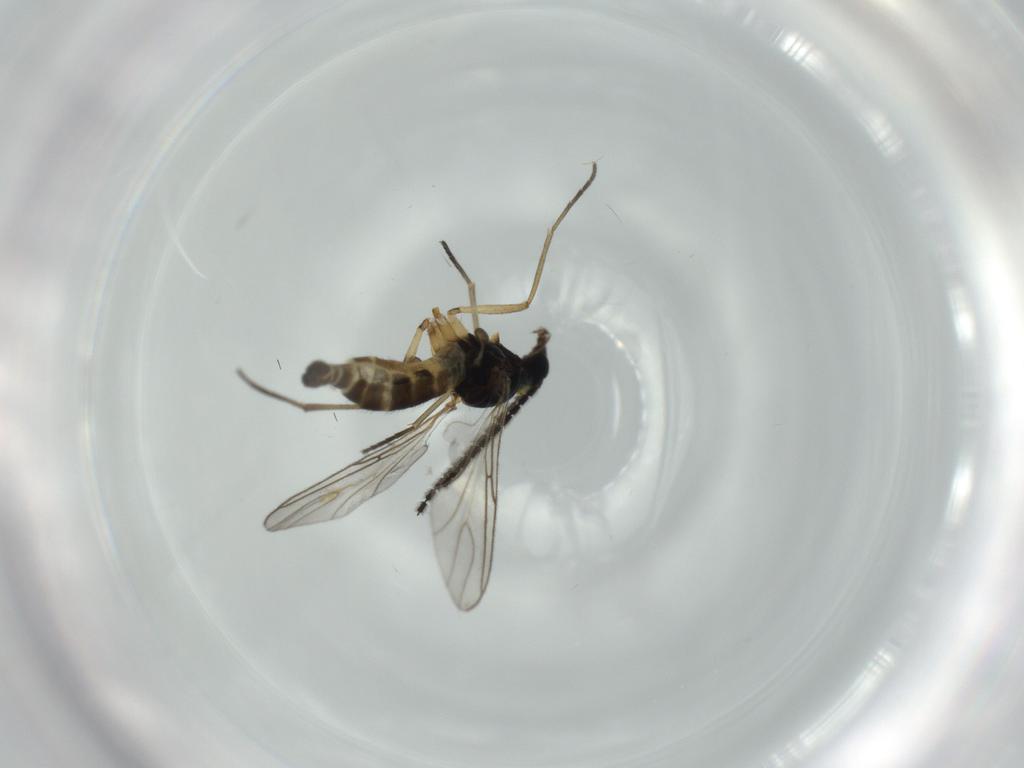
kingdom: Animalia
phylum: Arthropoda
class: Insecta
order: Diptera
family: Sciaridae
